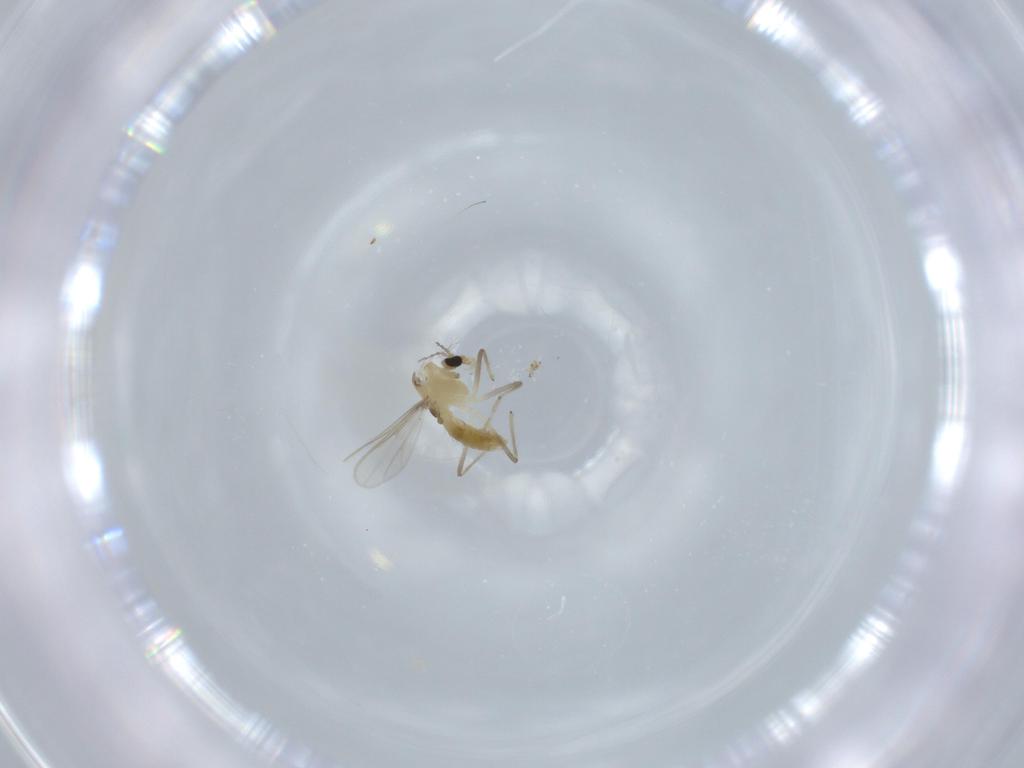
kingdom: Animalia
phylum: Arthropoda
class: Insecta
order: Diptera
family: Chironomidae
